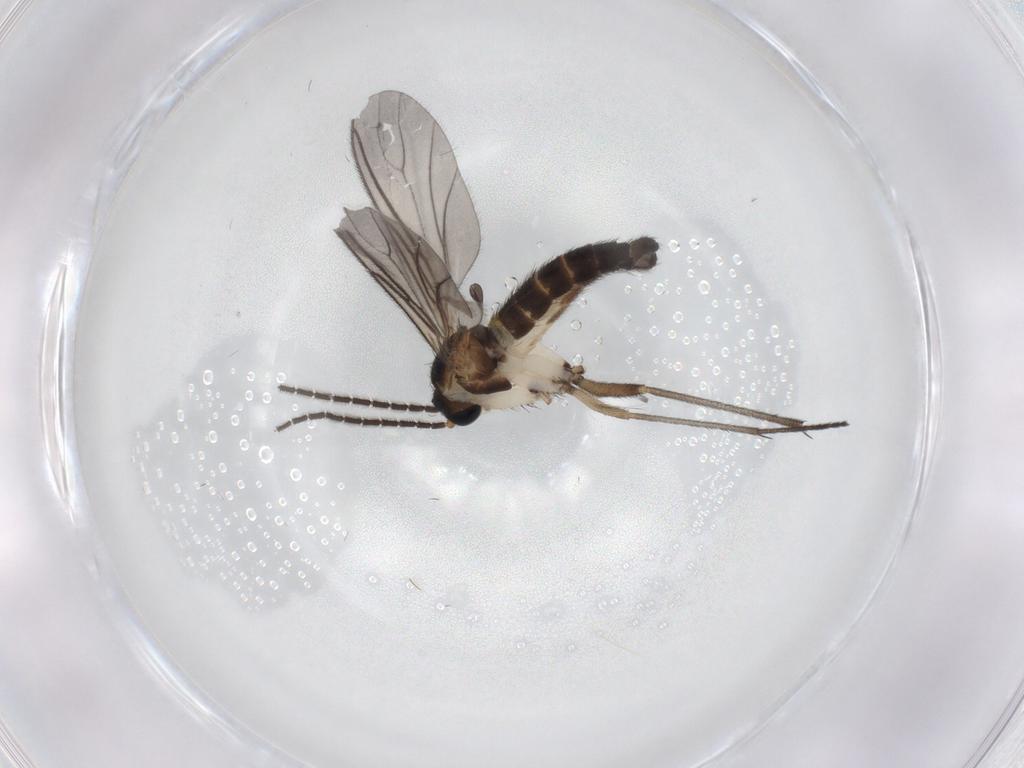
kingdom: Animalia
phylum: Arthropoda
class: Insecta
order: Diptera
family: Sciaridae
